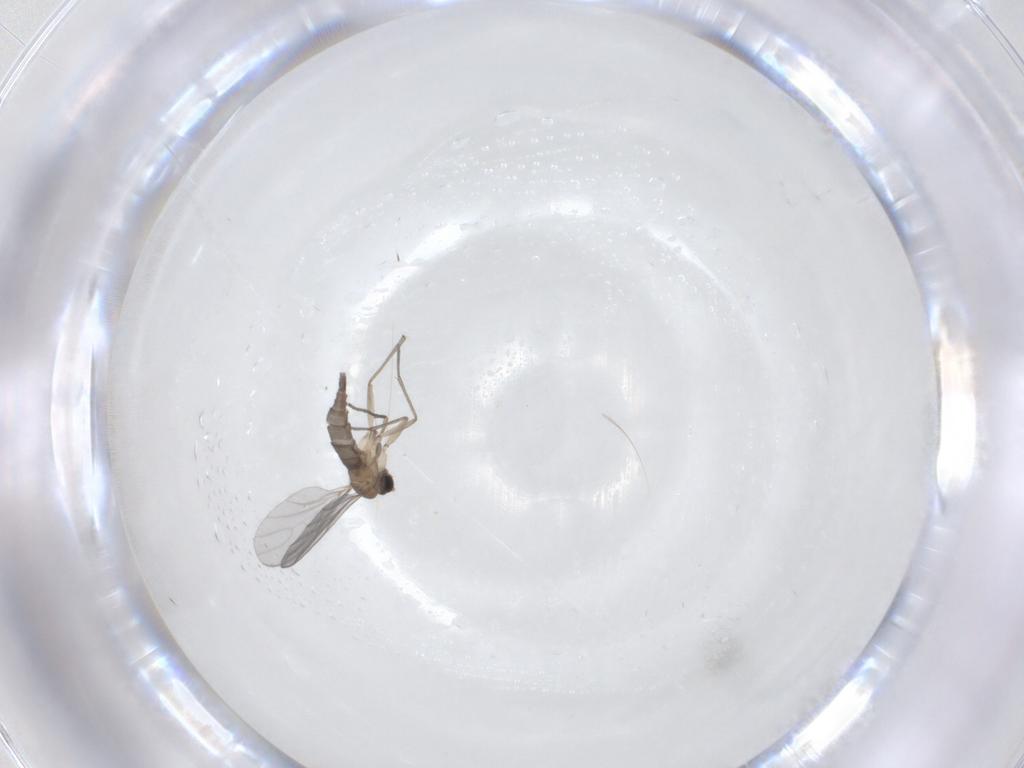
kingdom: Animalia
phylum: Arthropoda
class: Insecta
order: Diptera
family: Sciaridae
